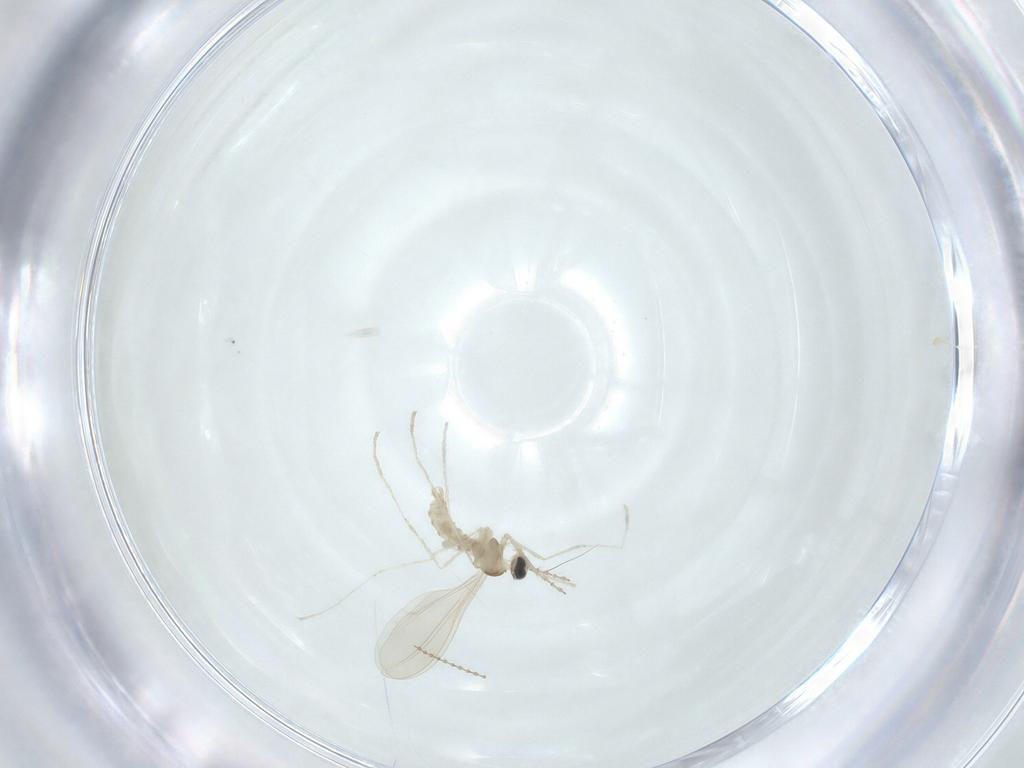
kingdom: Animalia
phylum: Arthropoda
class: Insecta
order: Diptera
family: Cecidomyiidae
